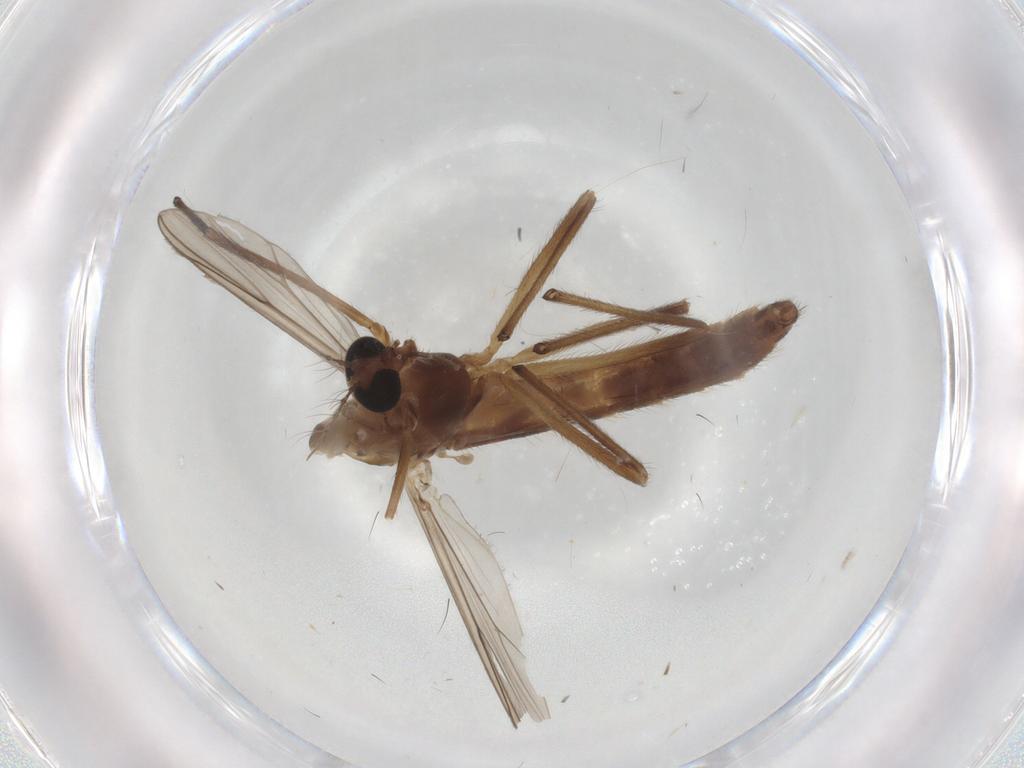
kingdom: Animalia
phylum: Arthropoda
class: Insecta
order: Diptera
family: Chironomidae
